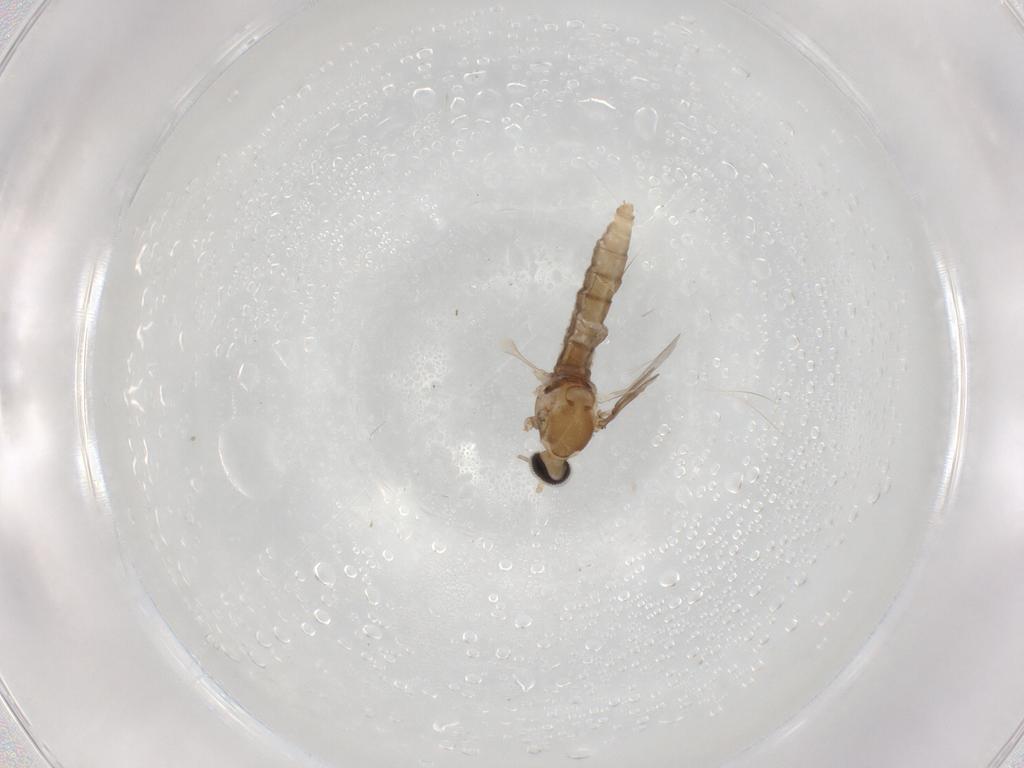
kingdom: Animalia
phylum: Arthropoda
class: Insecta
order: Diptera
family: Cecidomyiidae
